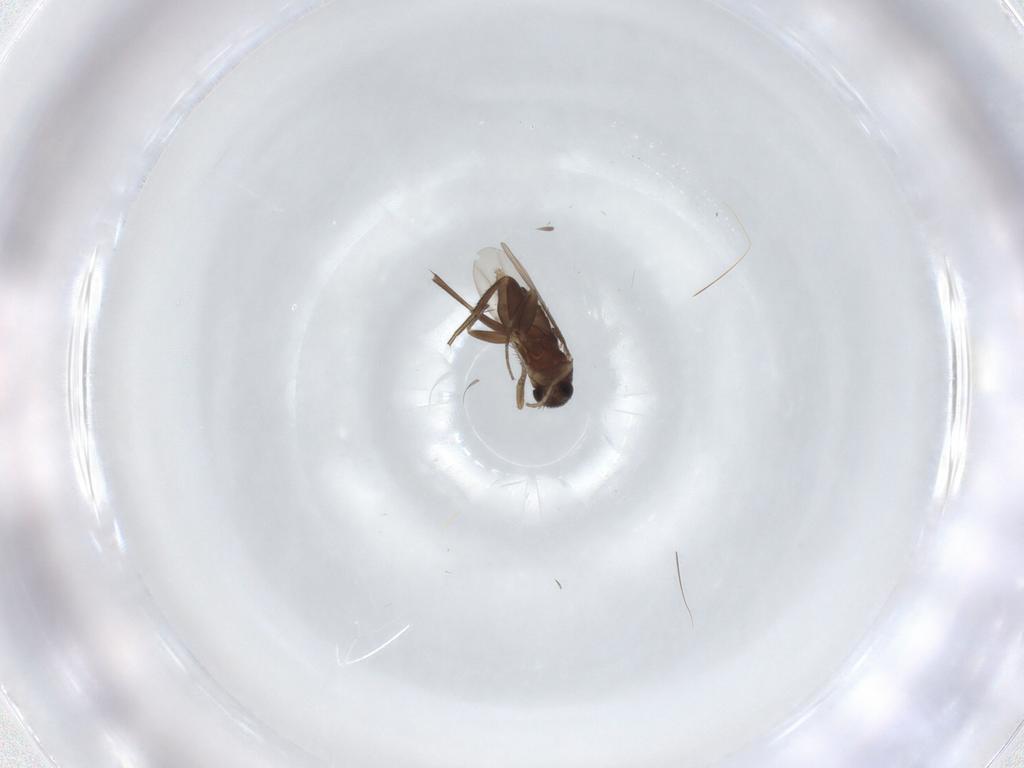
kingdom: Animalia
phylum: Arthropoda
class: Insecta
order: Diptera
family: Phoridae
